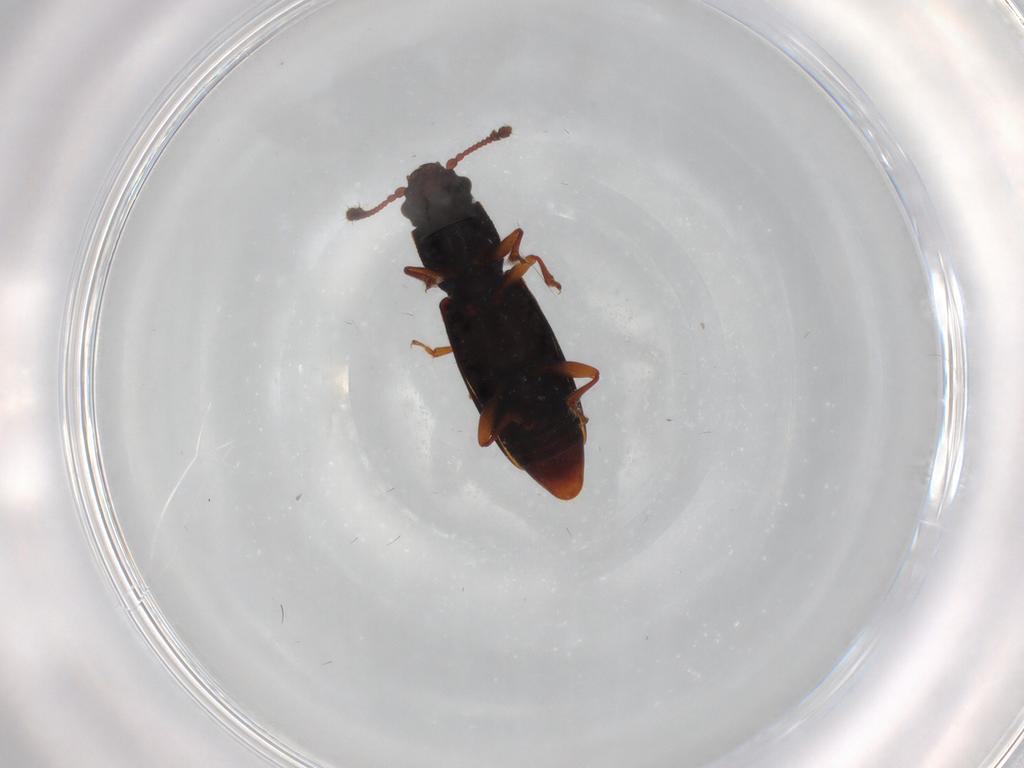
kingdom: Animalia
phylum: Arthropoda
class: Insecta
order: Coleoptera
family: Monotomidae
